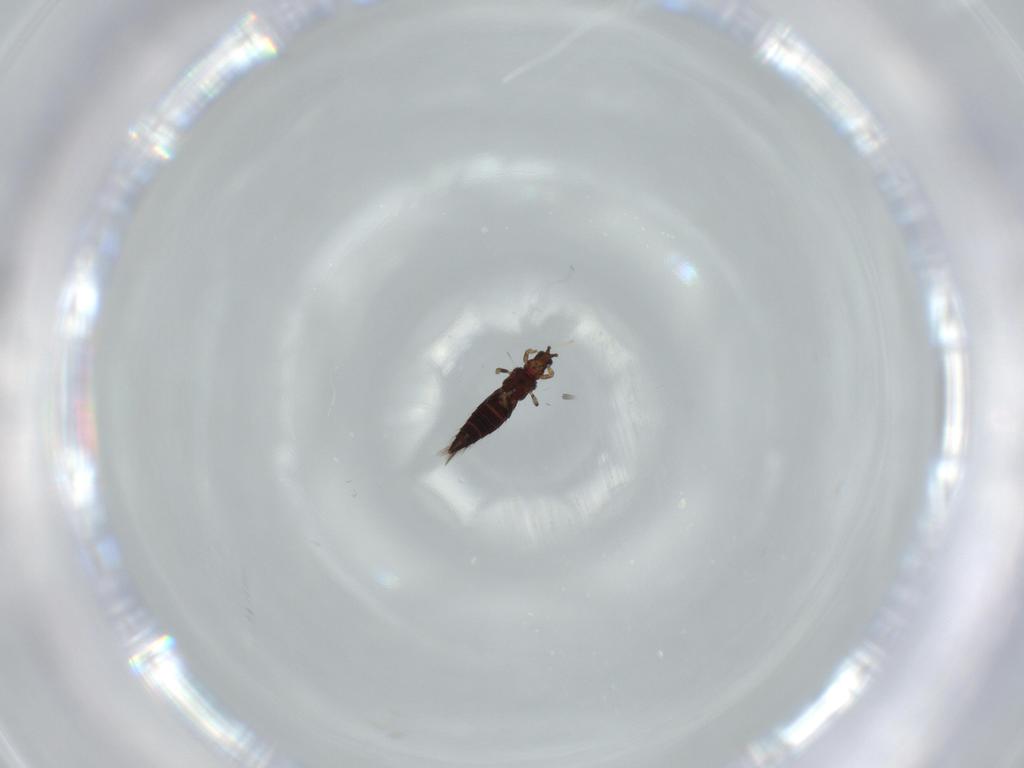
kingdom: Animalia
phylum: Arthropoda
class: Insecta
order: Thysanoptera
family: Thripidae
